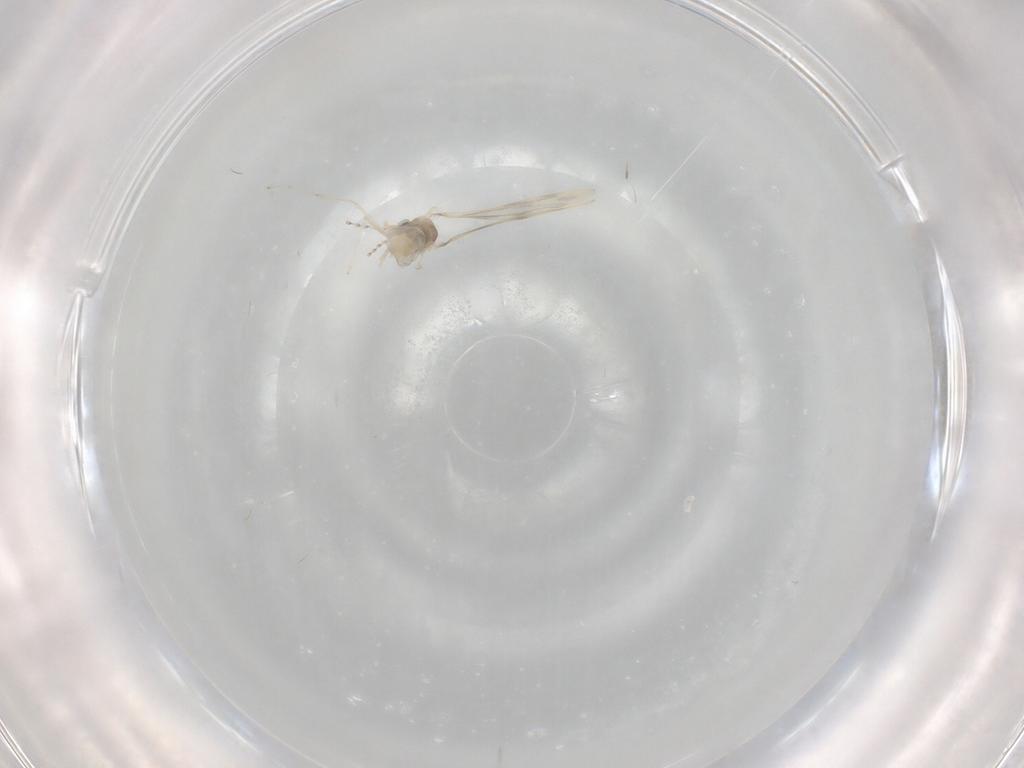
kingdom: Animalia
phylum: Arthropoda
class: Insecta
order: Diptera
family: Cecidomyiidae
